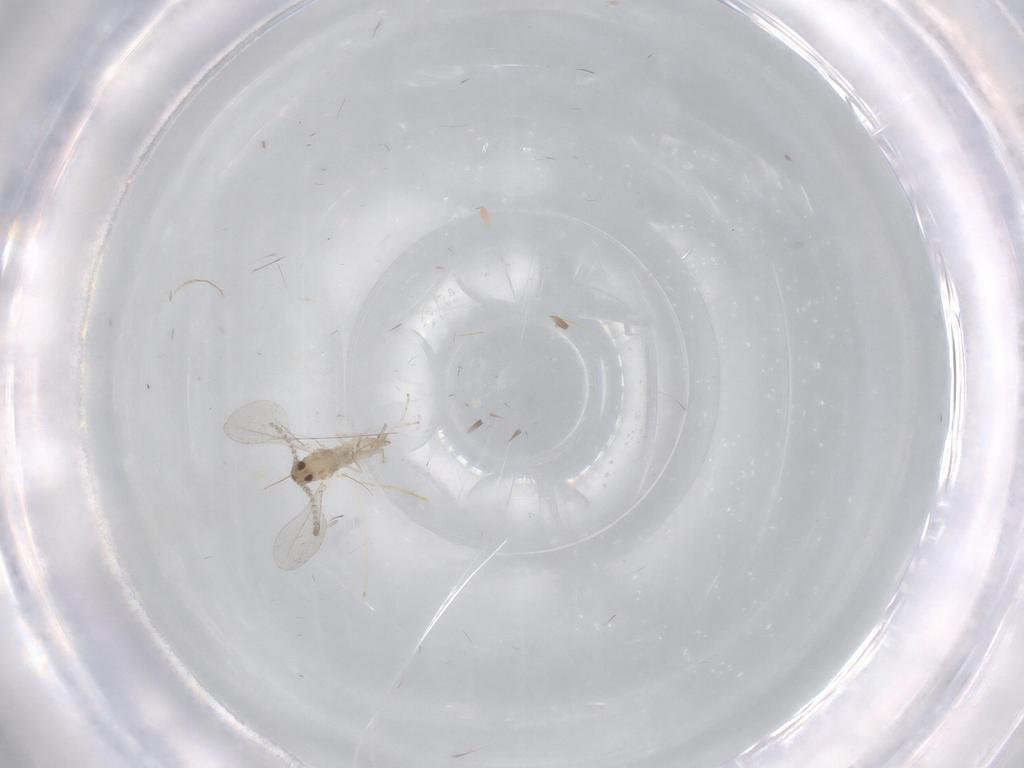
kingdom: Animalia
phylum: Arthropoda
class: Insecta
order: Diptera
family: Cecidomyiidae
